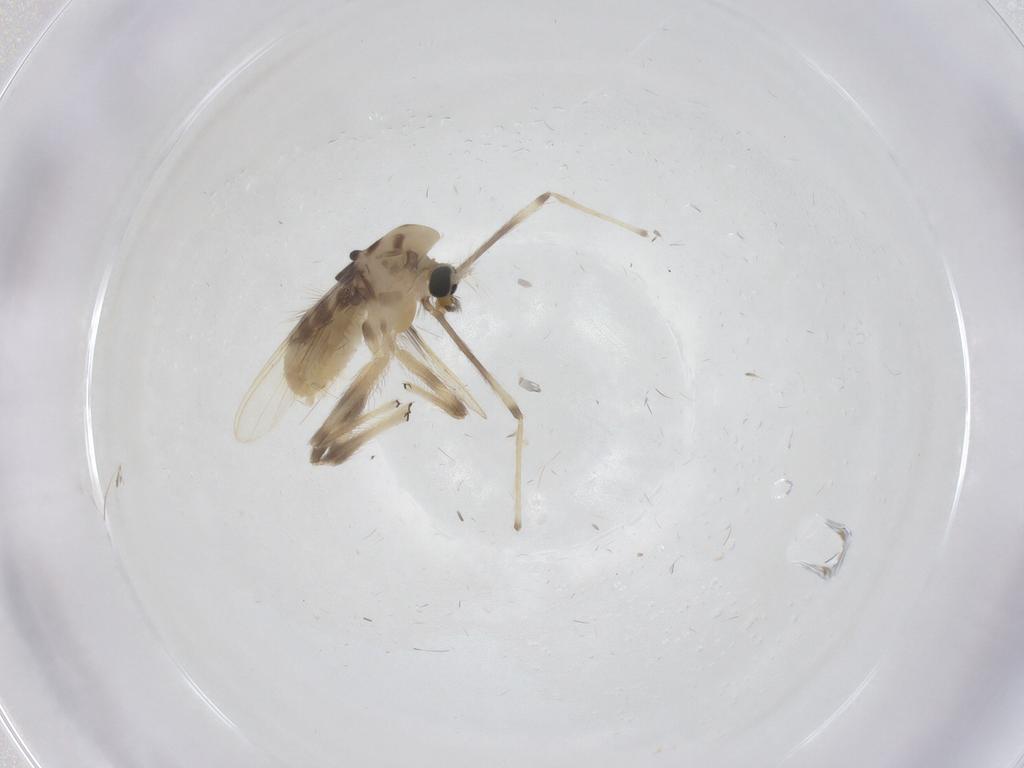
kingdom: Animalia
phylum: Arthropoda
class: Insecta
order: Diptera
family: Chironomidae
